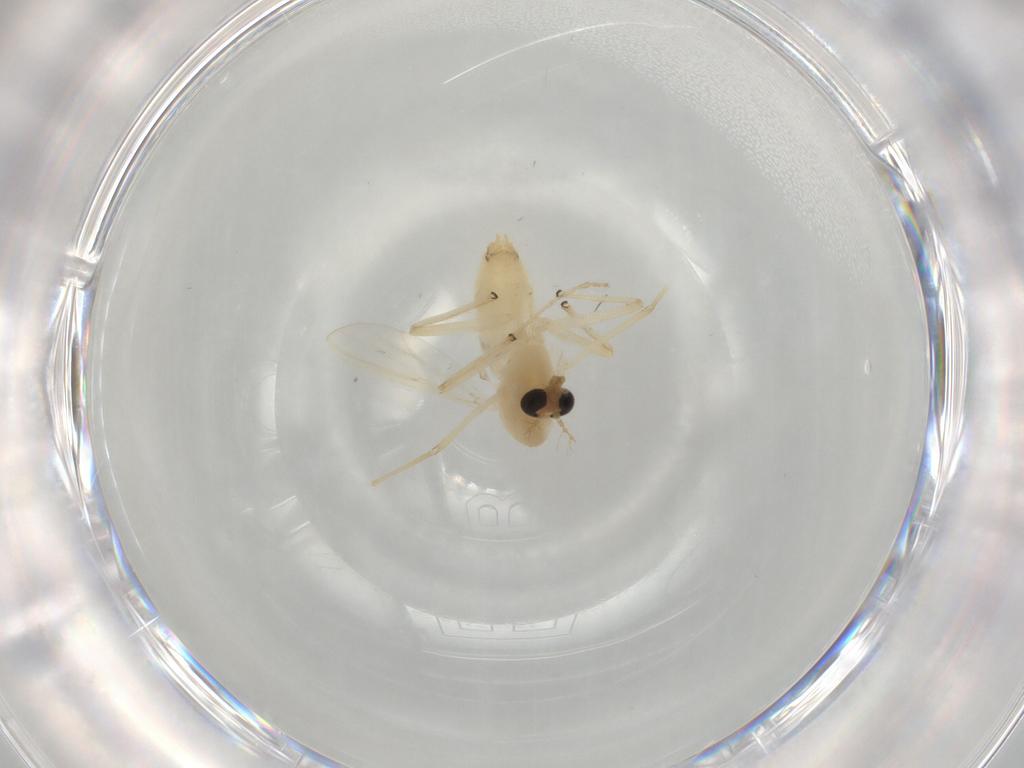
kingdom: Animalia
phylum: Arthropoda
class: Insecta
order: Diptera
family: Chironomidae
